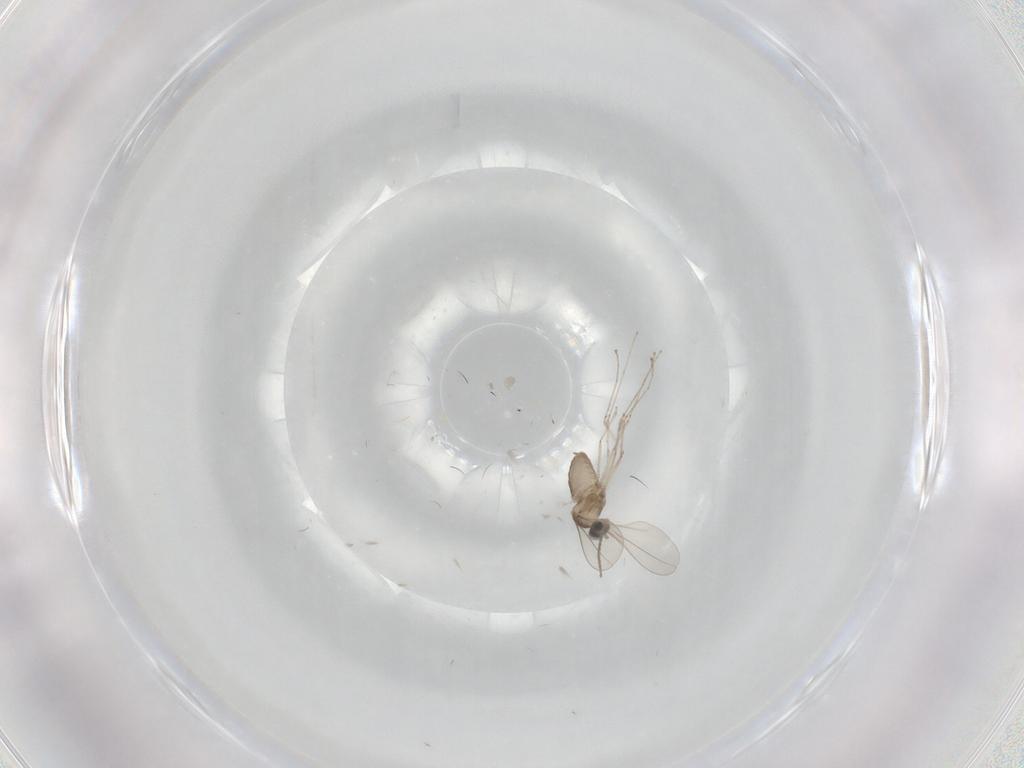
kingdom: Animalia
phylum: Arthropoda
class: Insecta
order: Diptera
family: Cecidomyiidae
